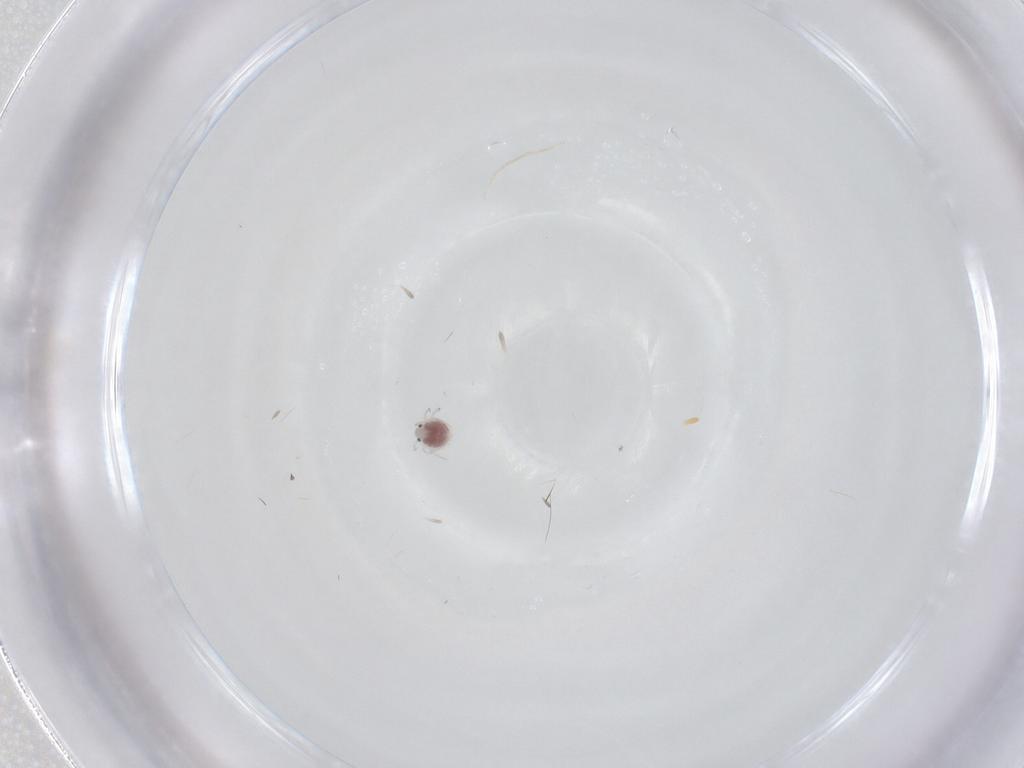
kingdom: Animalia
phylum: Arthropoda
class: Arachnida
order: Trombidiformes
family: Pionidae
